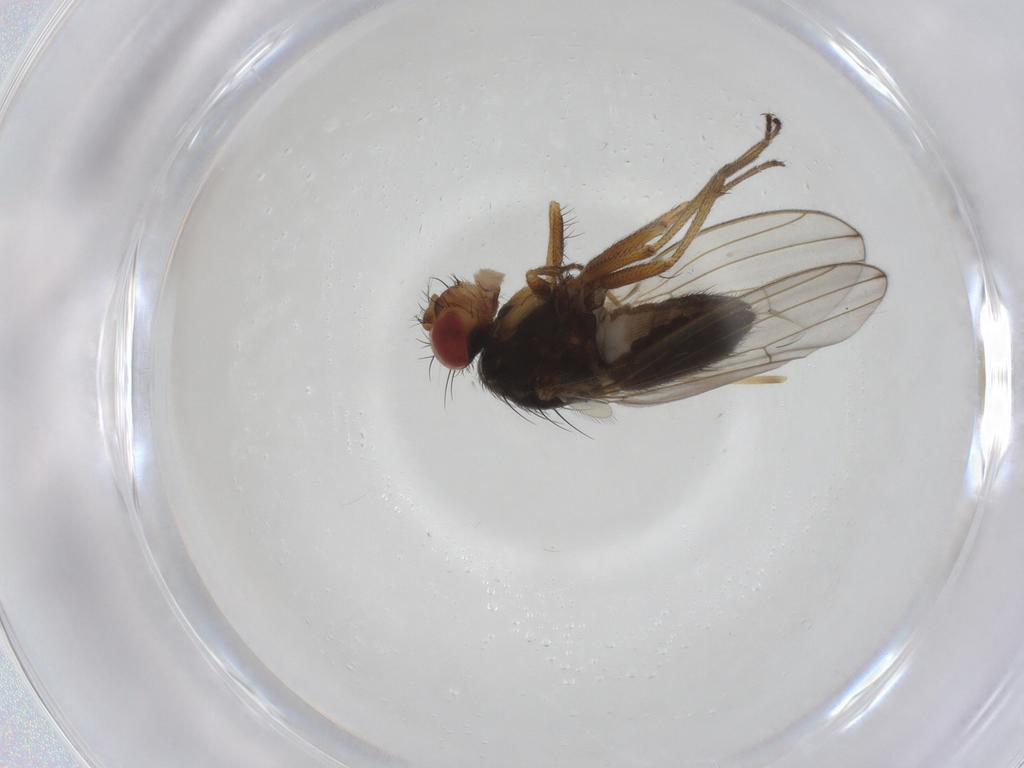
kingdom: Animalia
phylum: Arthropoda
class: Insecta
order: Diptera
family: Drosophilidae
